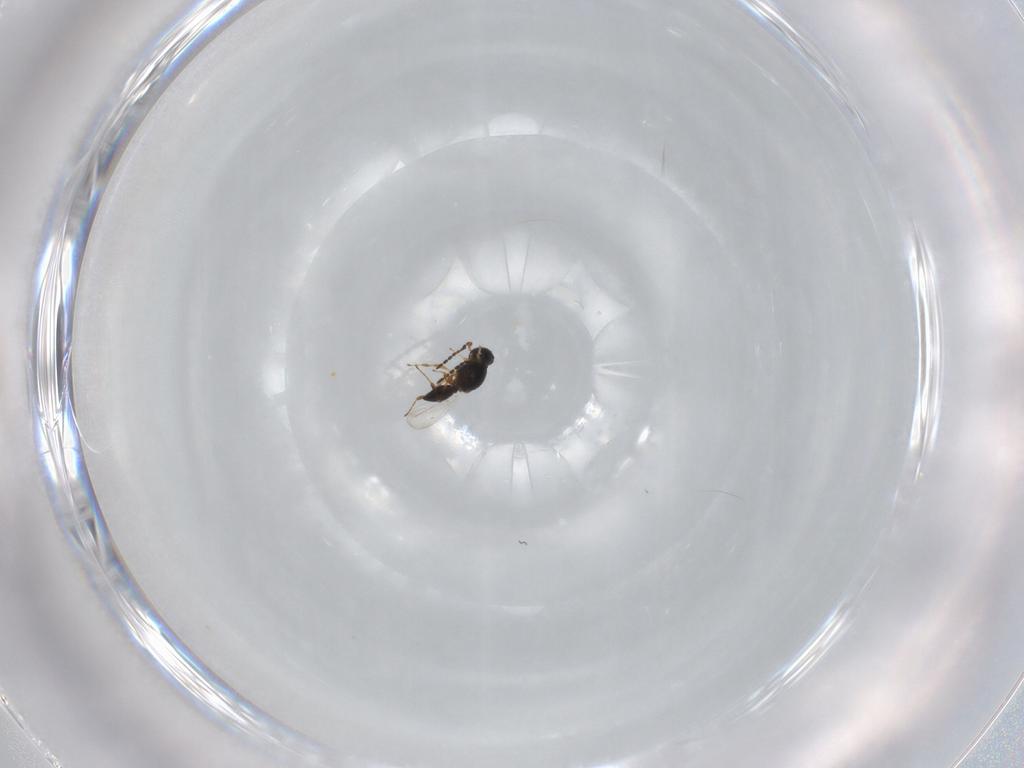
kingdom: Animalia
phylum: Arthropoda
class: Insecta
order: Hymenoptera
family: Platygastridae
